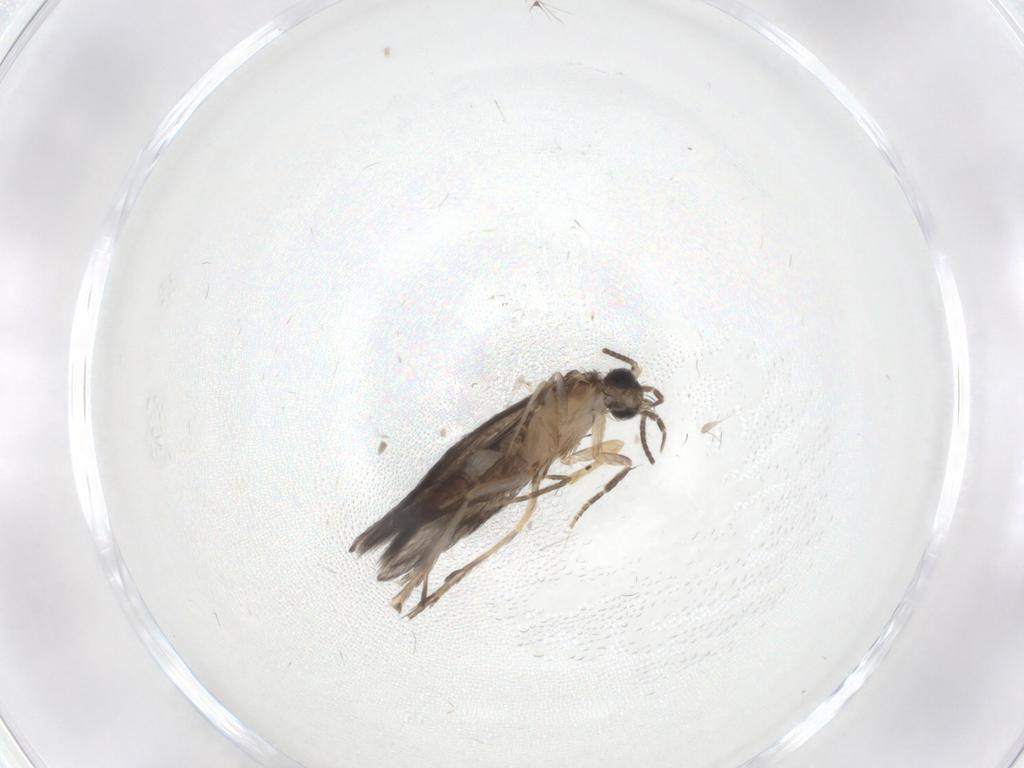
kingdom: Animalia
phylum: Arthropoda
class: Insecta
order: Trichoptera
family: Hydroptilidae
